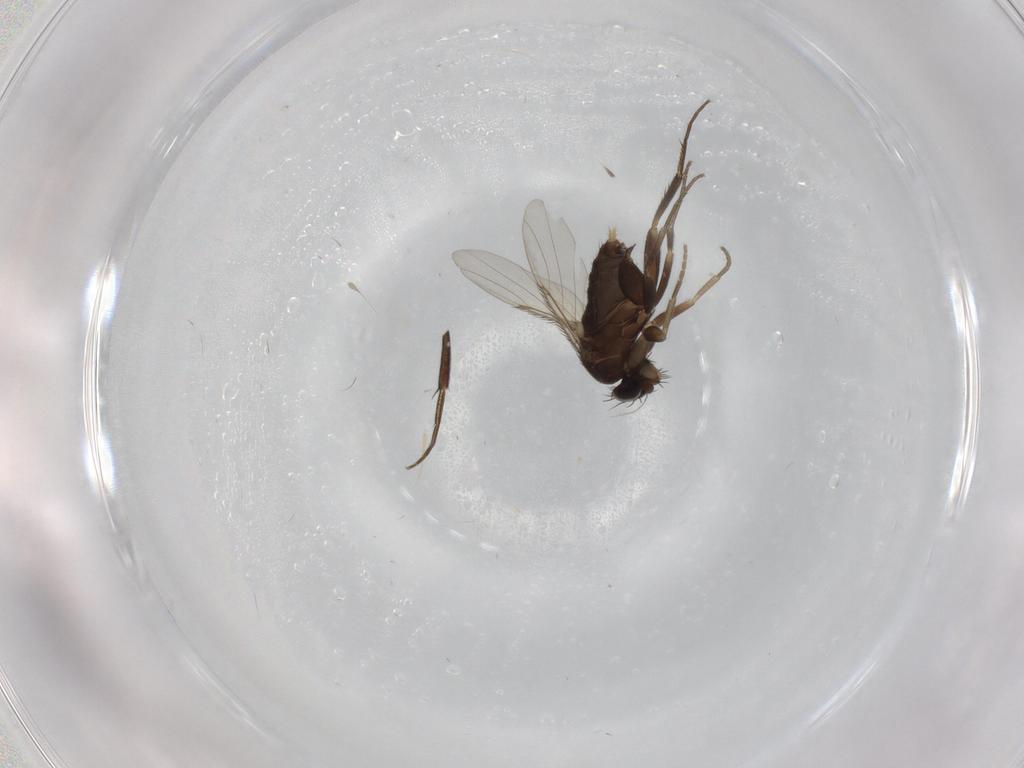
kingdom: Animalia
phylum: Arthropoda
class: Insecta
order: Diptera
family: Phoridae
